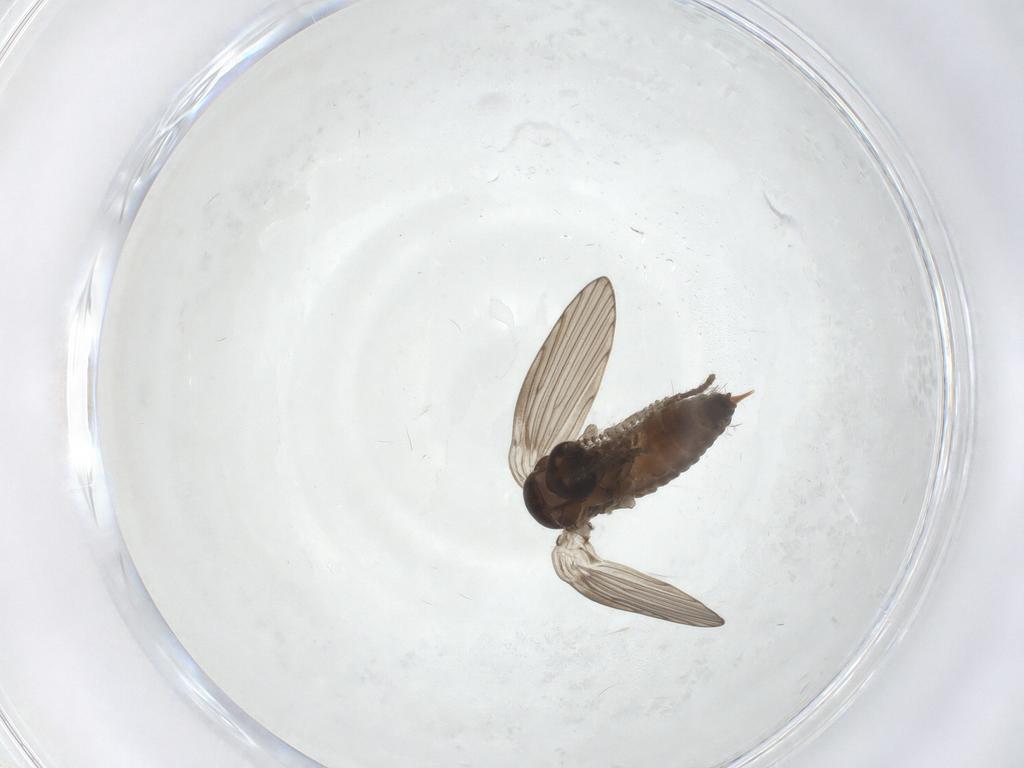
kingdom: Animalia
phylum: Arthropoda
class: Insecta
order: Diptera
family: Psychodidae
